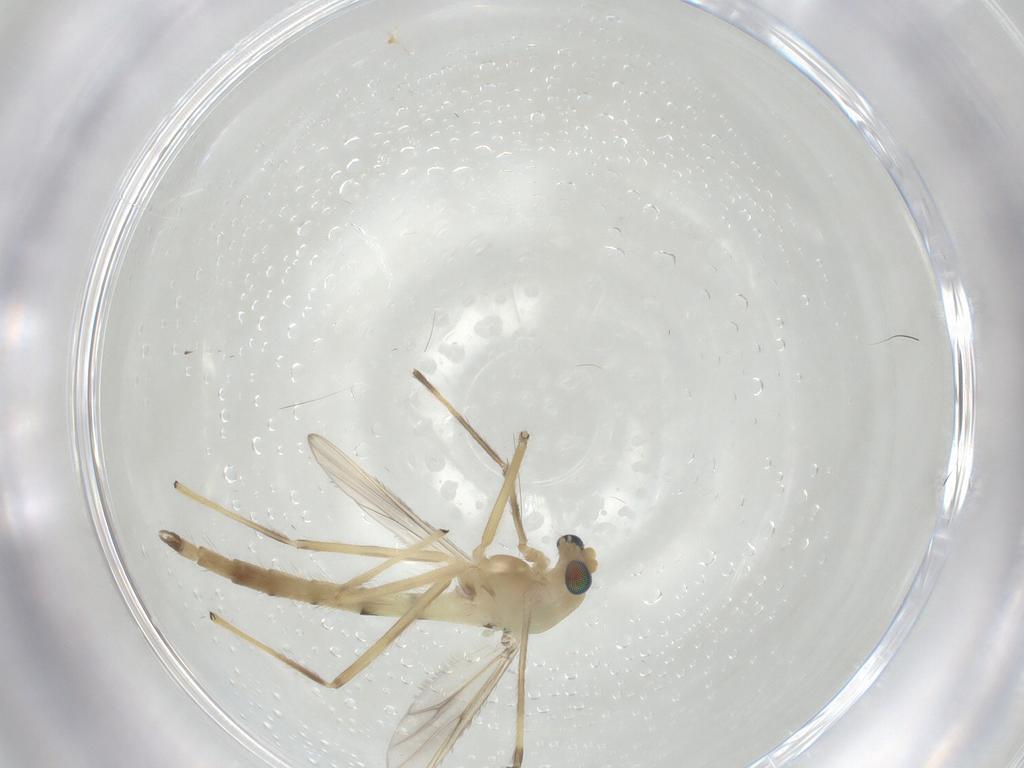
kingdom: Animalia
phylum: Arthropoda
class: Insecta
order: Diptera
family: Chironomidae
